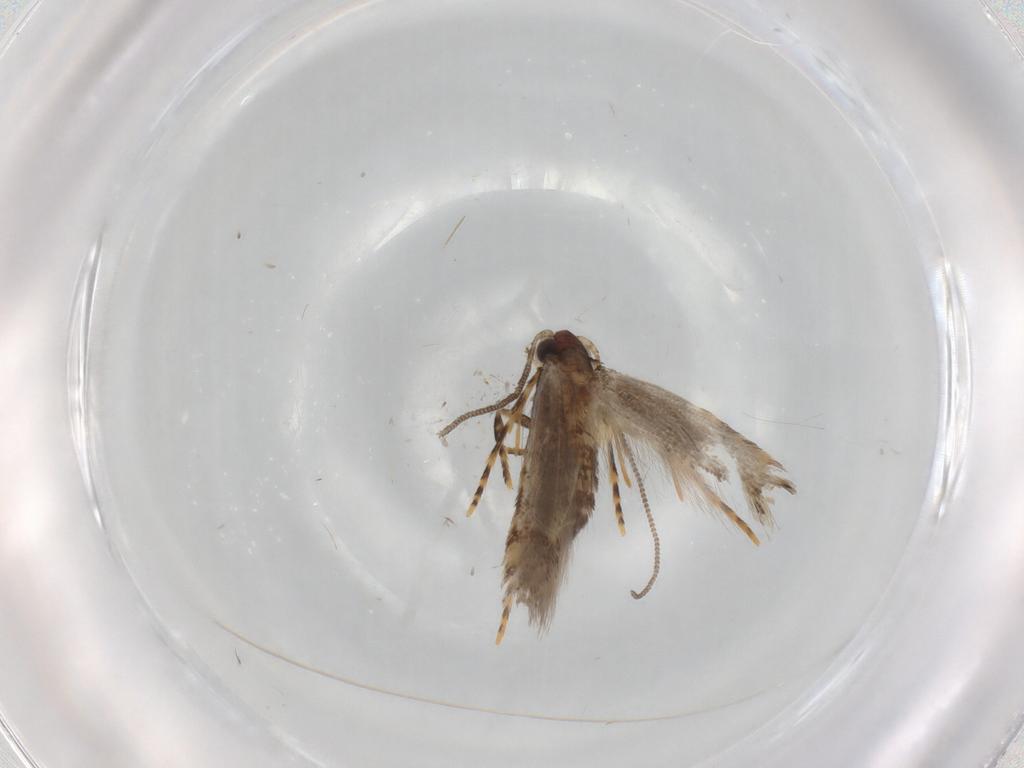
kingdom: Animalia
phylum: Arthropoda
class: Insecta
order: Lepidoptera
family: Tineidae
